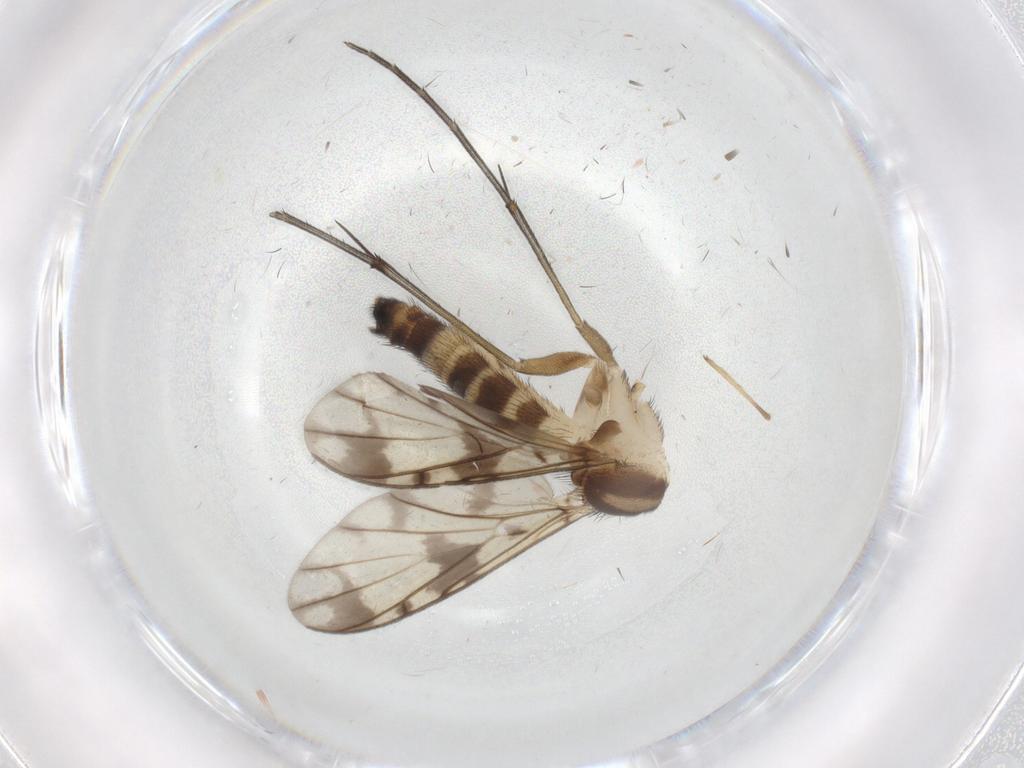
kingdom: Animalia
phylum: Arthropoda
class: Insecta
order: Diptera
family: Keroplatidae
